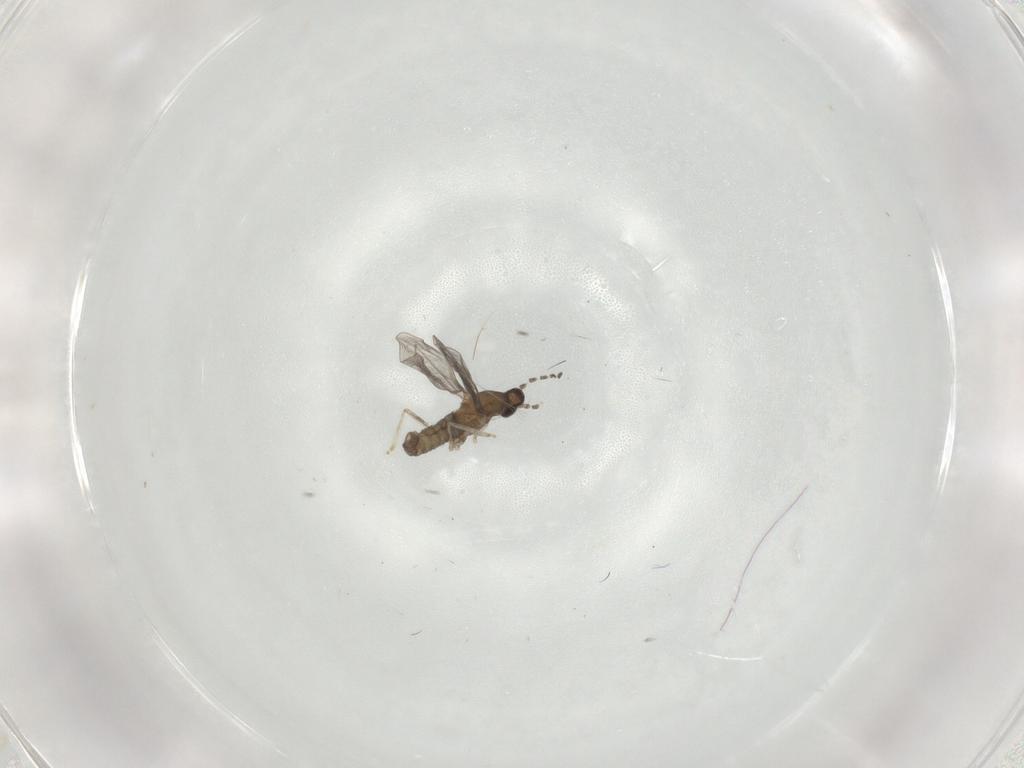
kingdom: Animalia
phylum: Arthropoda
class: Insecta
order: Diptera
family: Cecidomyiidae
